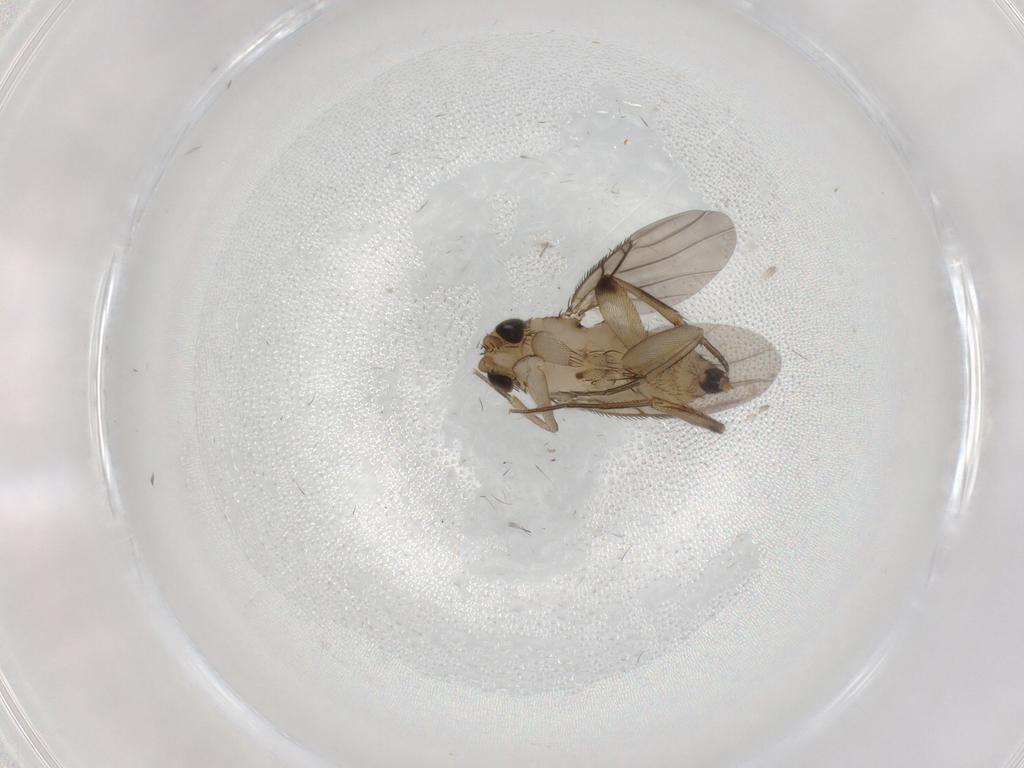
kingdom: Animalia
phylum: Arthropoda
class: Insecta
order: Diptera
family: Phoridae
